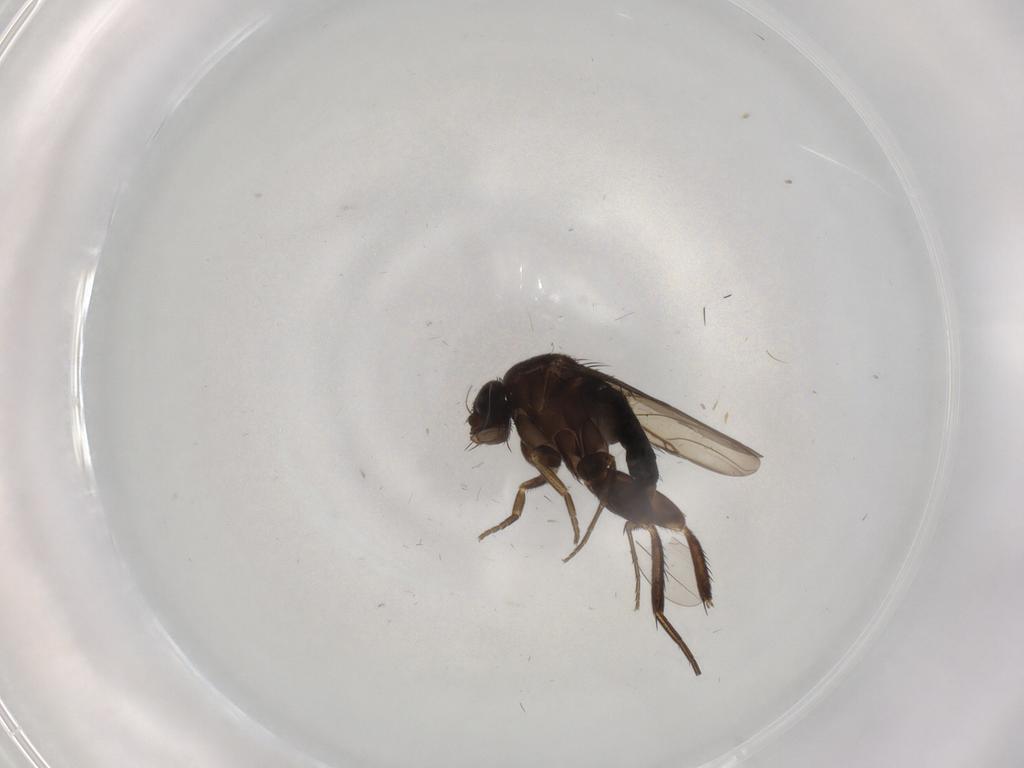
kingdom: Animalia
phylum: Arthropoda
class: Insecta
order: Diptera
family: Phoridae
